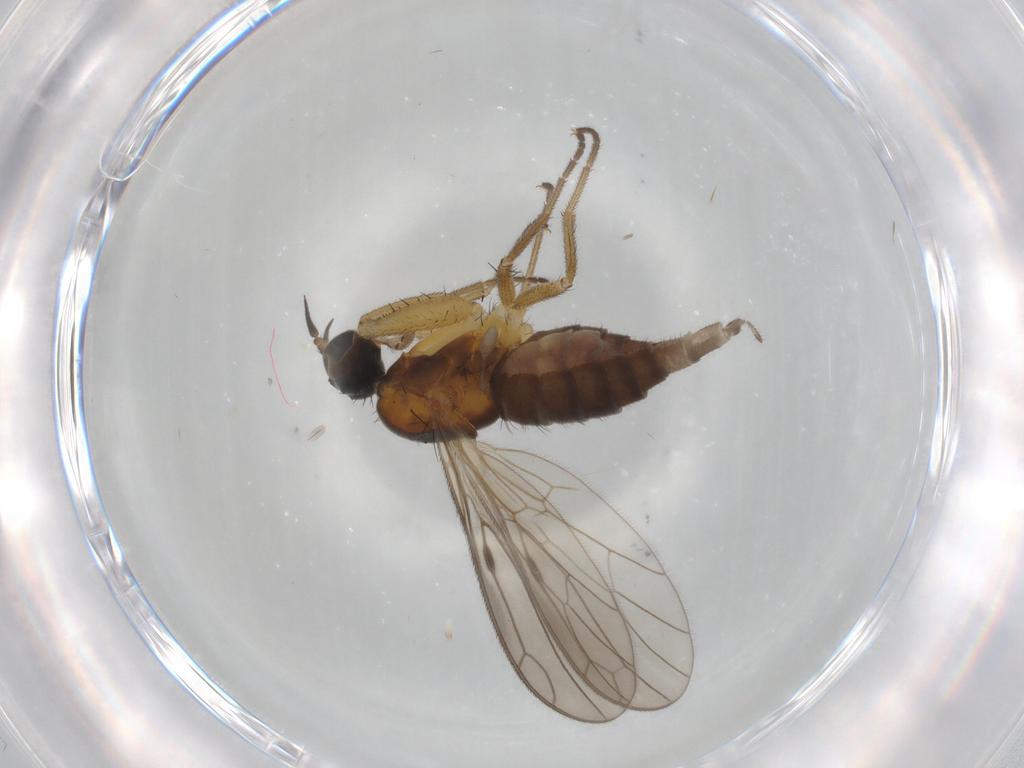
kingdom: Animalia
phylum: Arthropoda
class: Insecta
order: Diptera
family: Empididae
